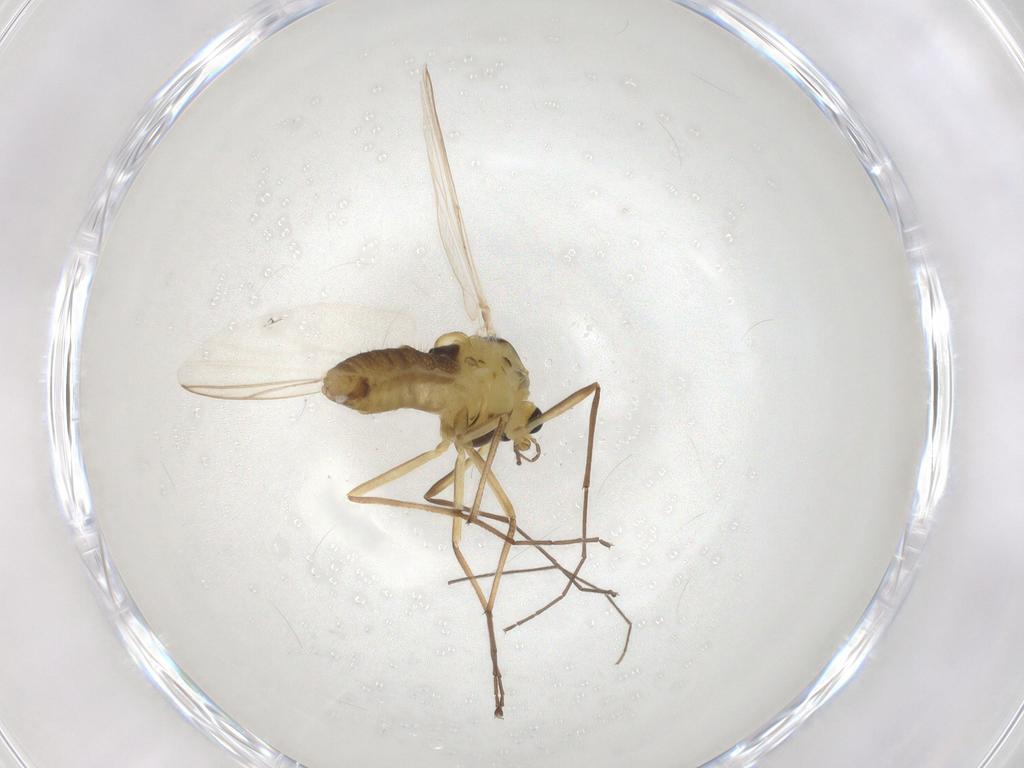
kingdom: Animalia
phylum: Arthropoda
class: Insecta
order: Diptera
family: Chironomidae
